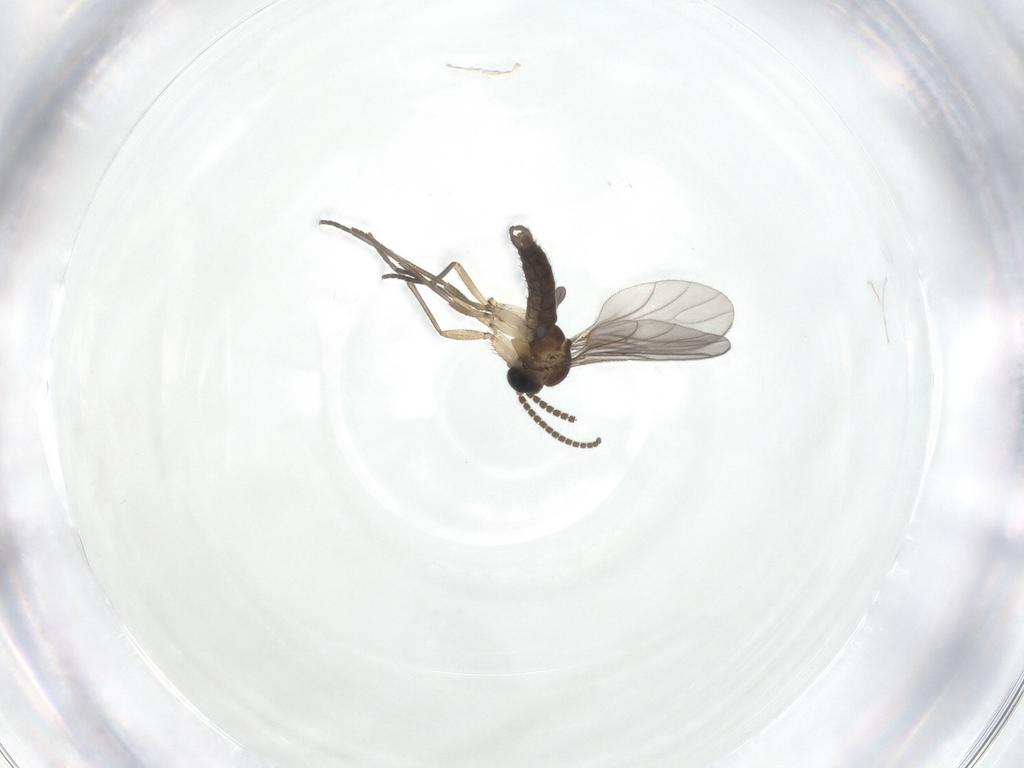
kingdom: Animalia
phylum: Arthropoda
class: Insecta
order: Diptera
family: Sciaridae
